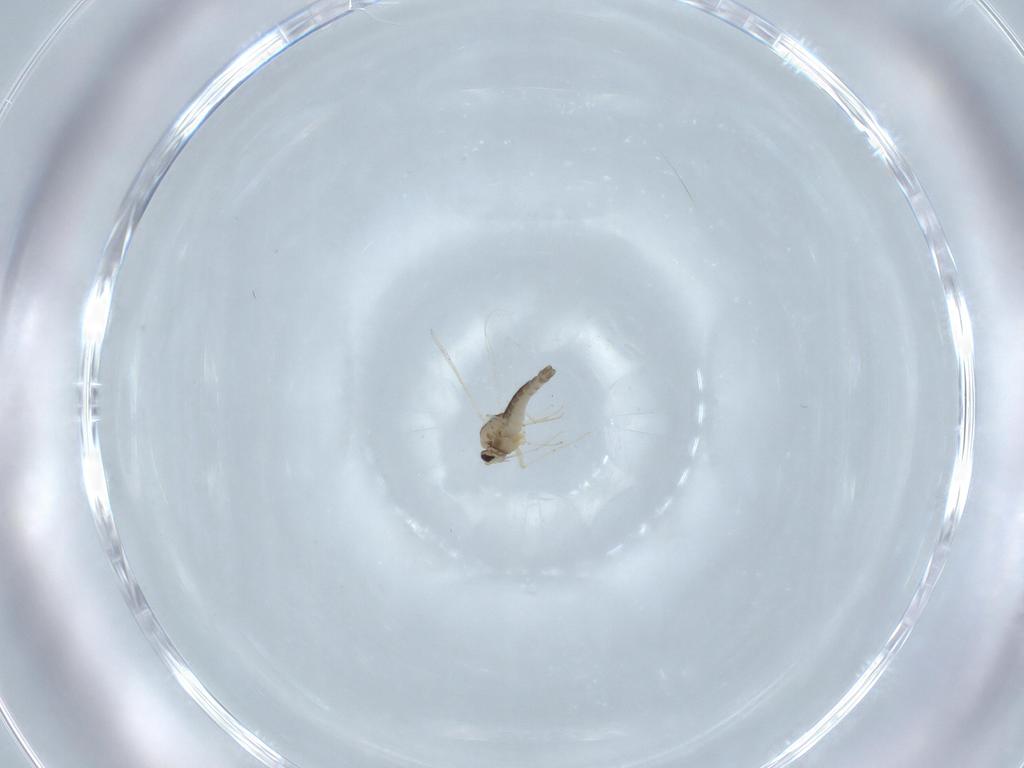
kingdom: Animalia
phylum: Arthropoda
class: Insecta
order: Diptera
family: Chironomidae
